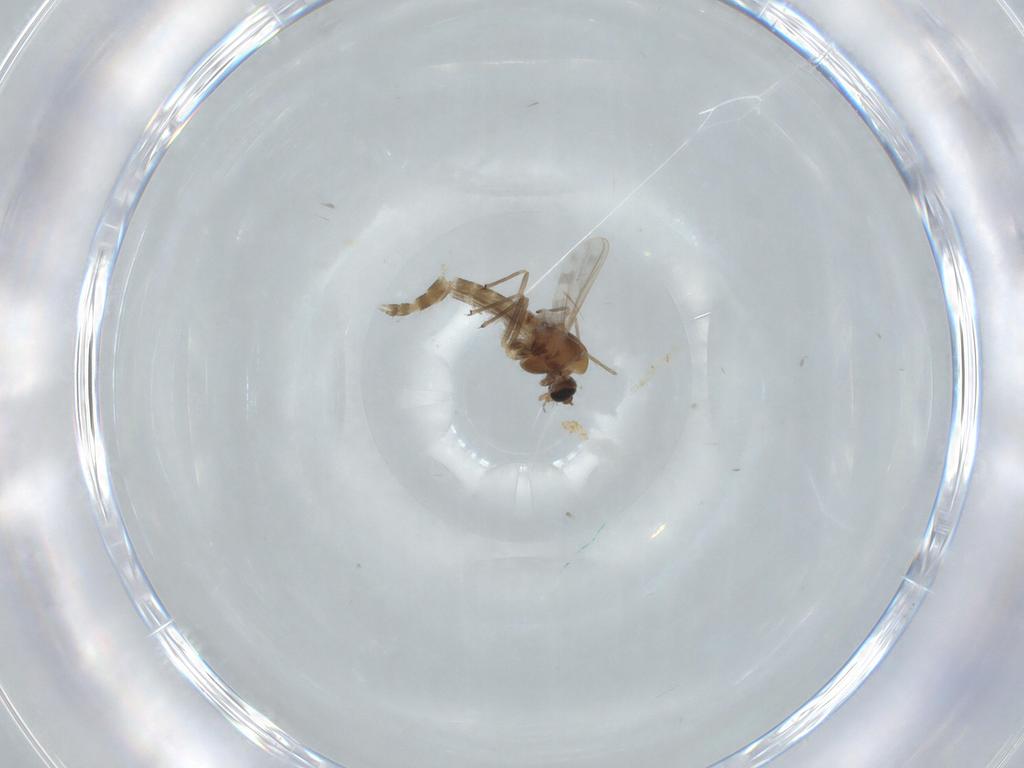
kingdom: Animalia
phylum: Arthropoda
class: Insecta
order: Diptera
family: Chironomidae
